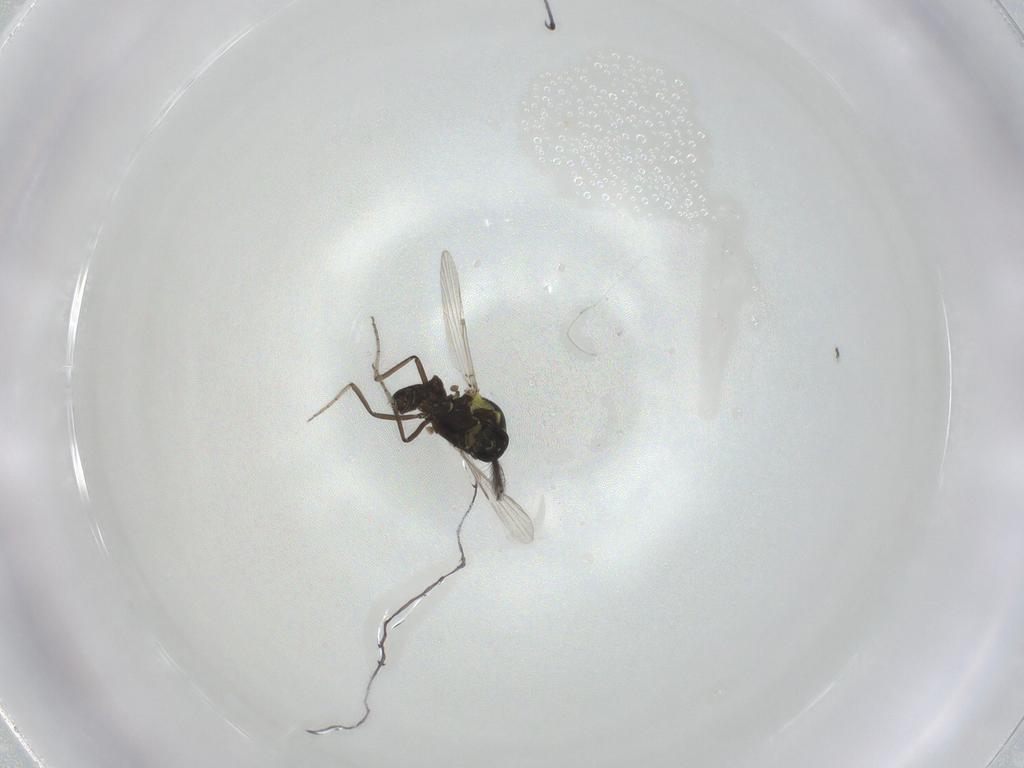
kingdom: Animalia
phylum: Arthropoda
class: Insecta
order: Diptera
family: Ceratopogonidae
